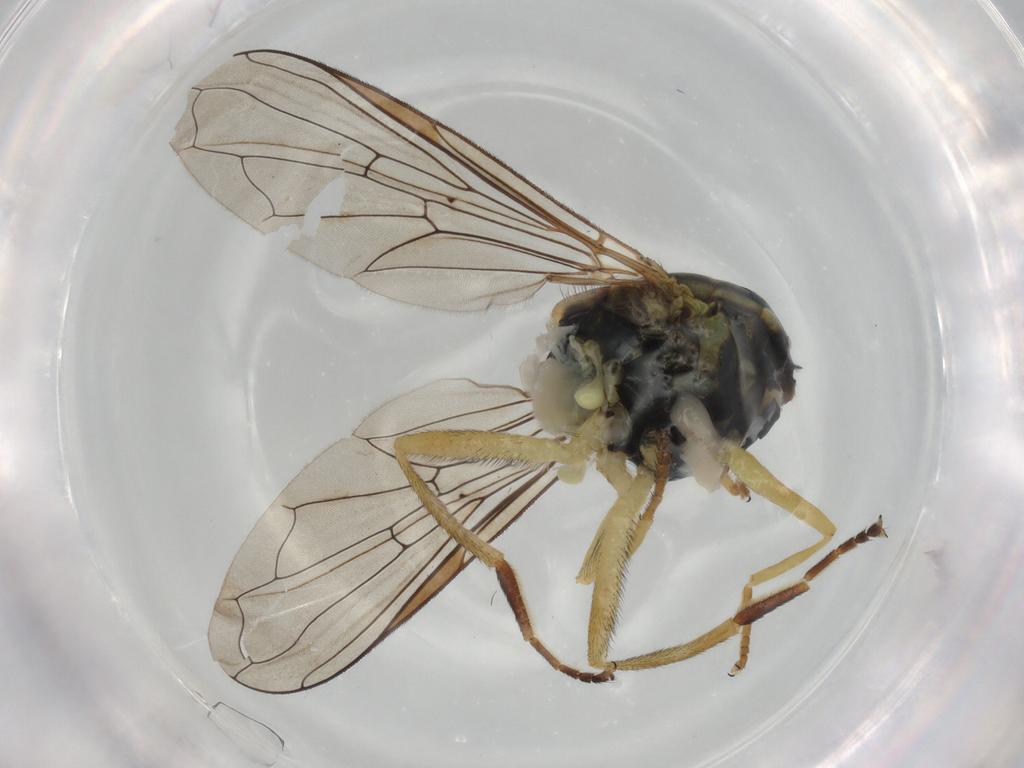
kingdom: Animalia
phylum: Arthropoda
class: Insecta
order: Diptera
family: Syrphidae
